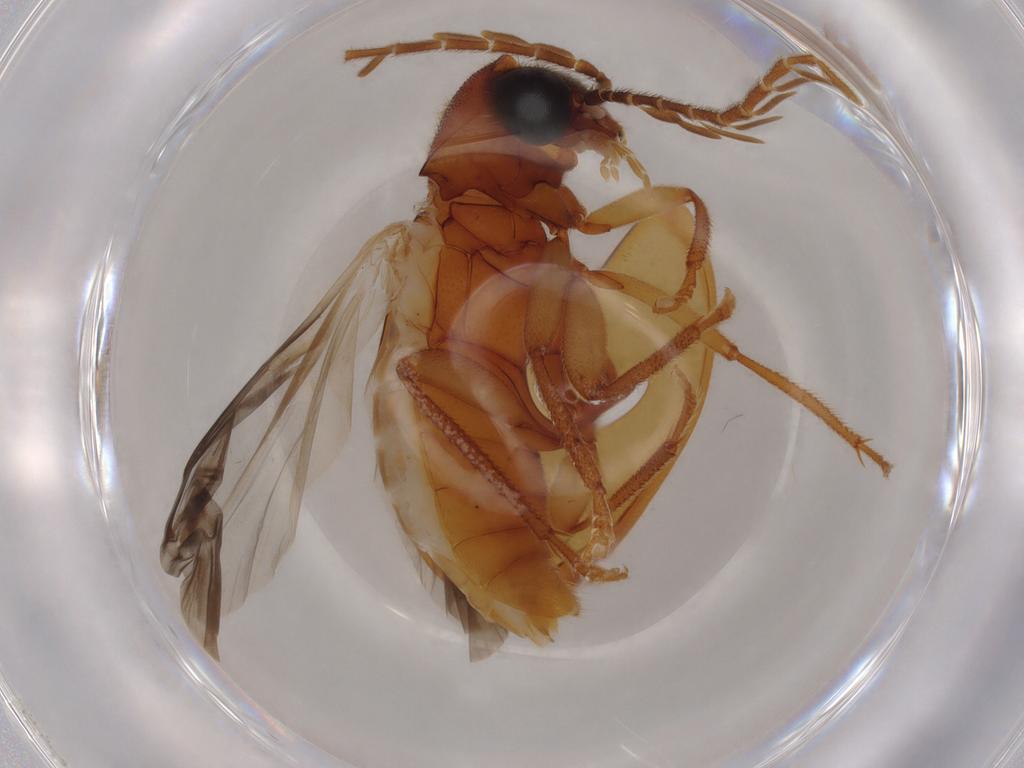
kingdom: Animalia
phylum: Arthropoda
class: Insecta
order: Coleoptera
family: Ptilodactylidae
